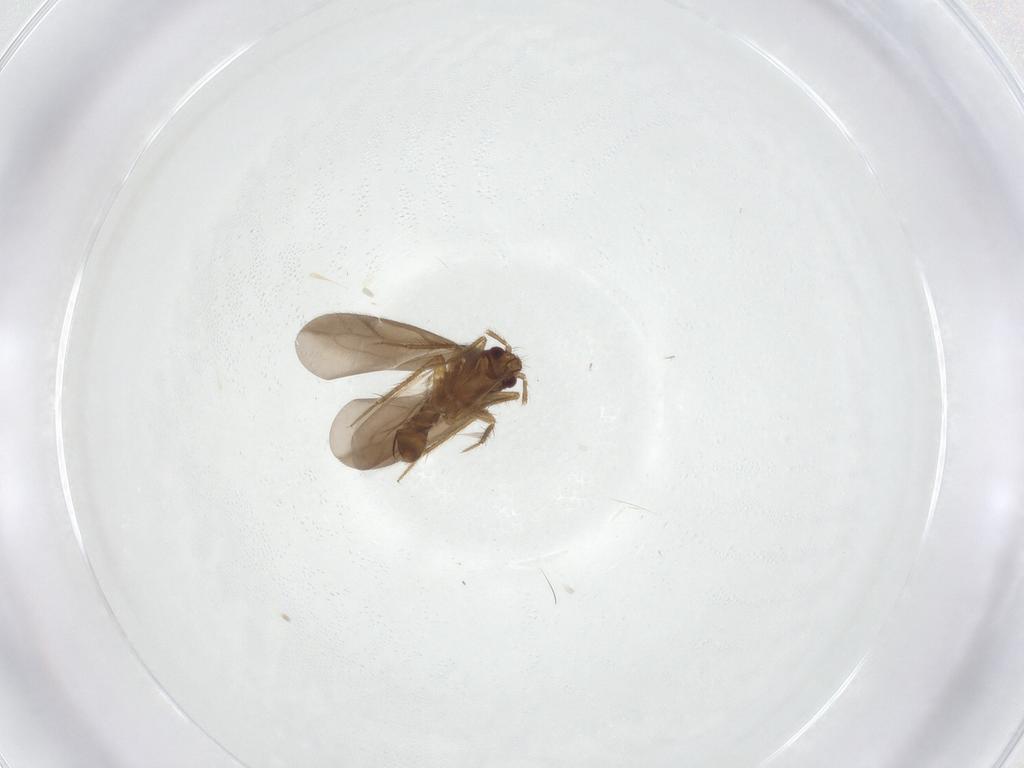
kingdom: Animalia
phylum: Arthropoda
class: Insecta
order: Hemiptera
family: Ceratocombidae
